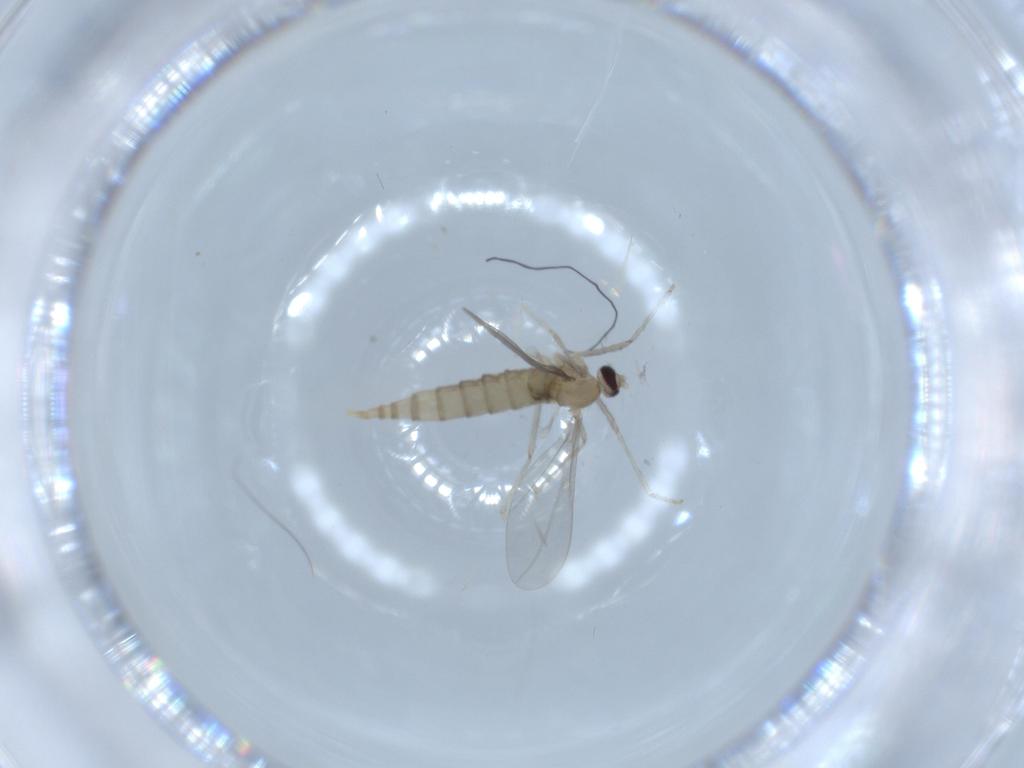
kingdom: Animalia
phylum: Arthropoda
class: Insecta
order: Diptera
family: Cecidomyiidae
